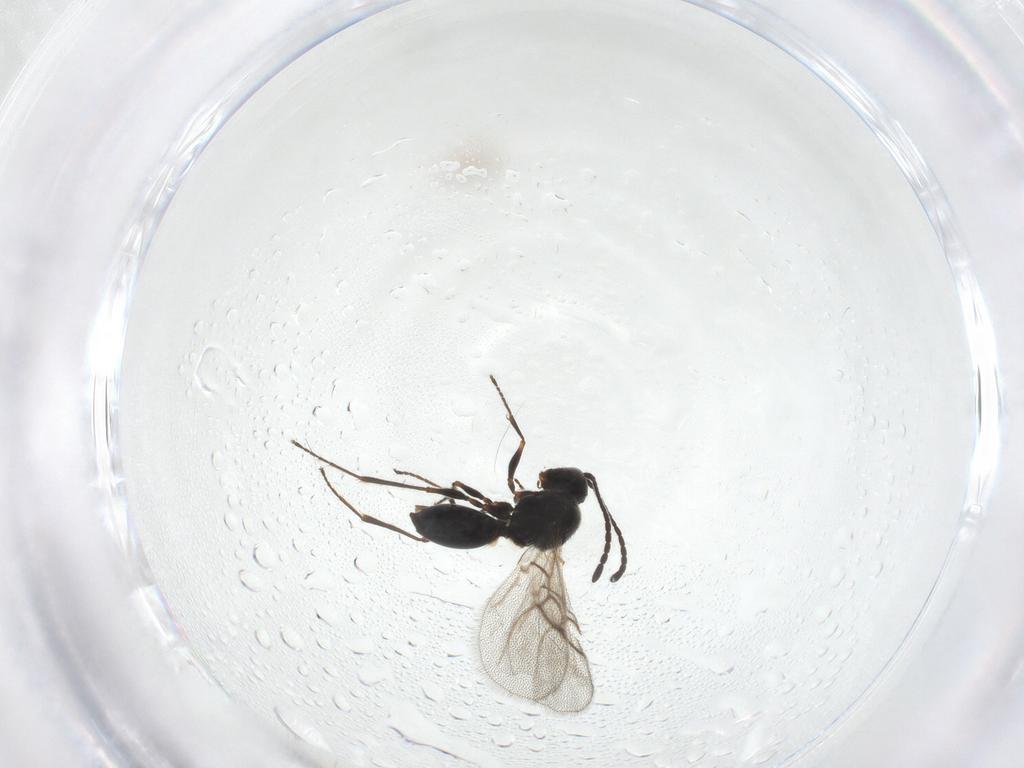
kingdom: Animalia
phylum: Arthropoda
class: Insecta
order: Hymenoptera
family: Figitidae
